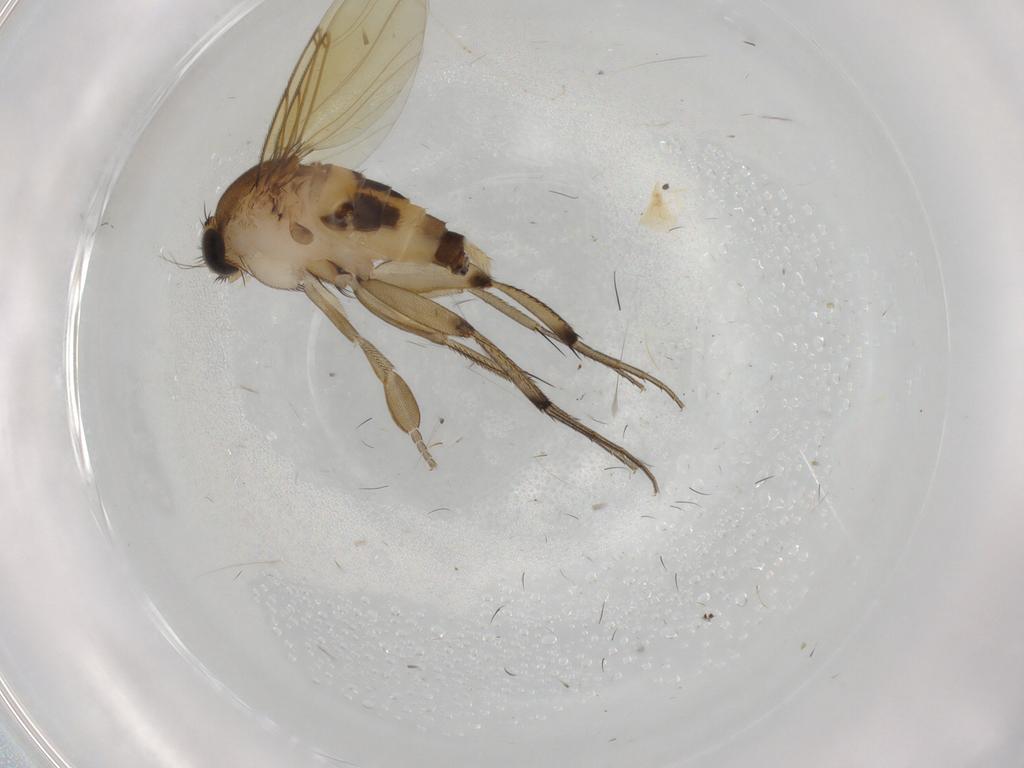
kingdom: Animalia
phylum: Arthropoda
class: Insecta
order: Diptera
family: Phoridae
